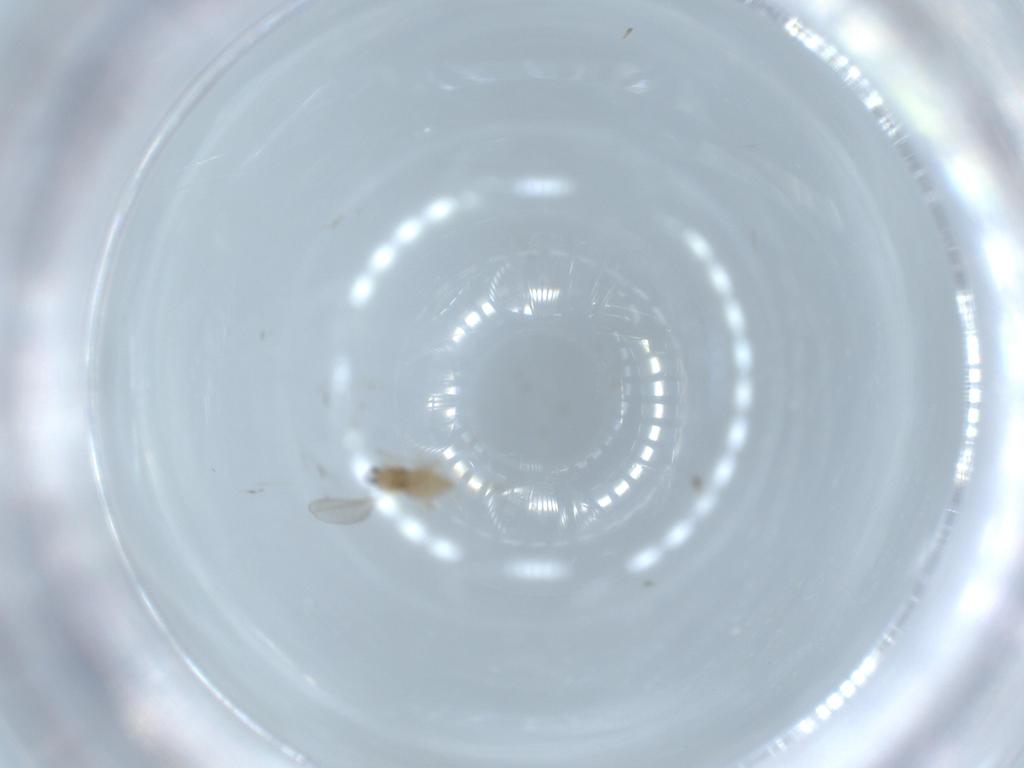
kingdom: Animalia
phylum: Arthropoda
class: Insecta
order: Diptera
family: Cecidomyiidae
